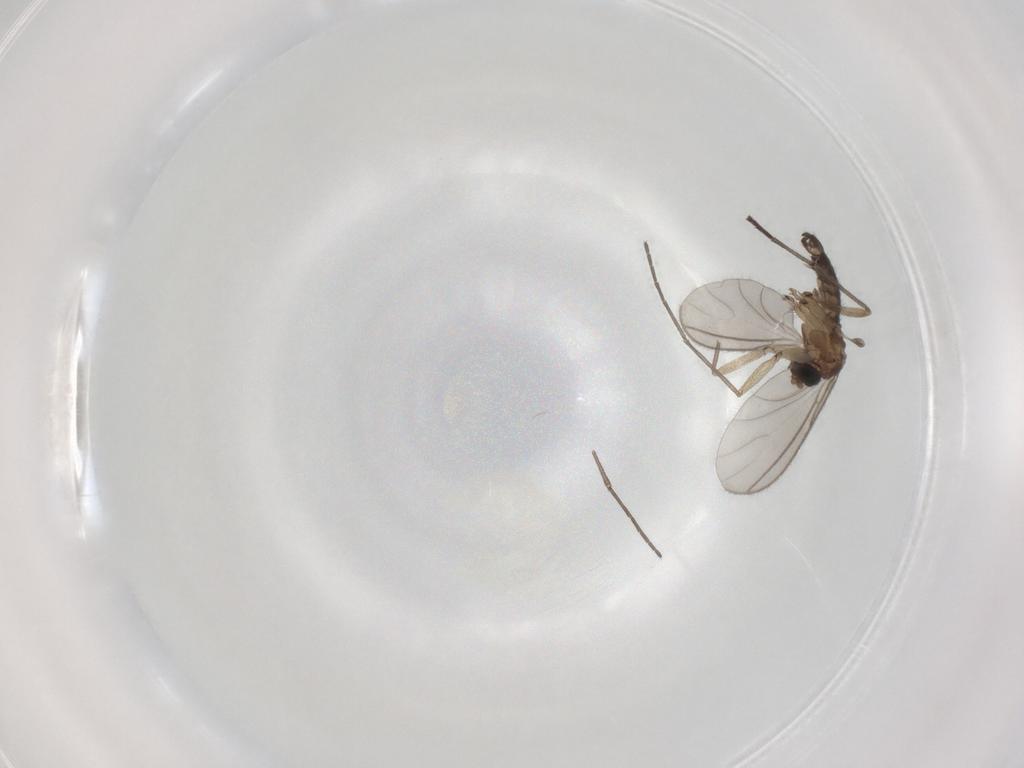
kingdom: Animalia
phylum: Arthropoda
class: Insecta
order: Diptera
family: Sciaridae
